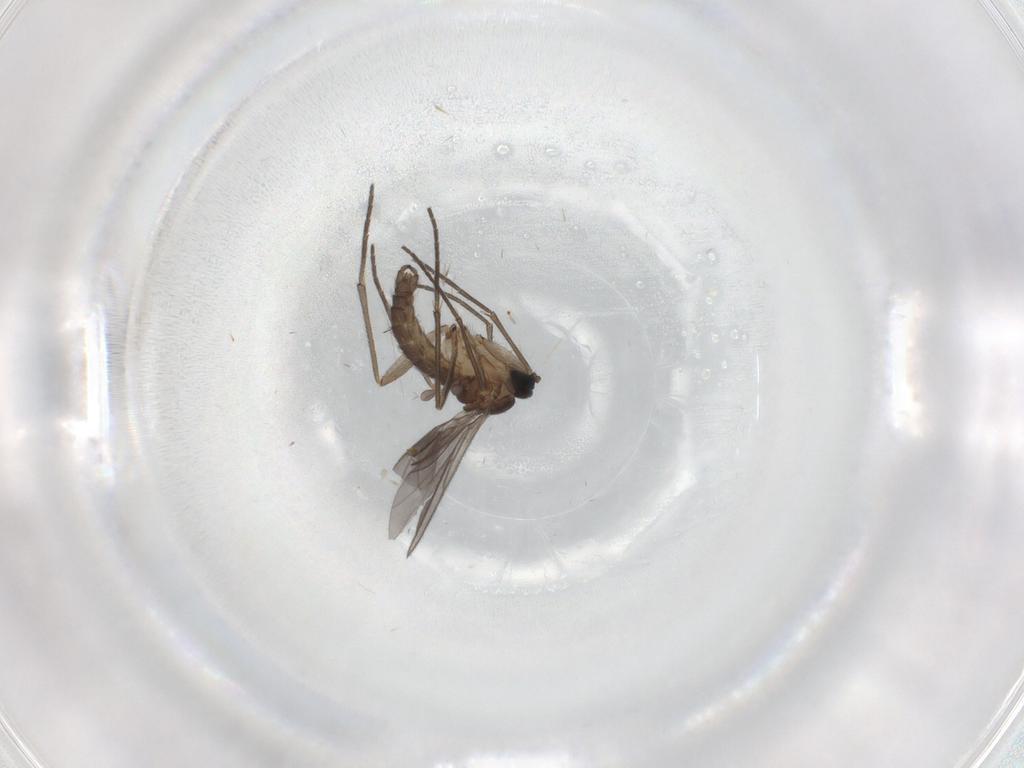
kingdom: Animalia
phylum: Arthropoda
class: Insecta
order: Diptera
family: Sciaridae
